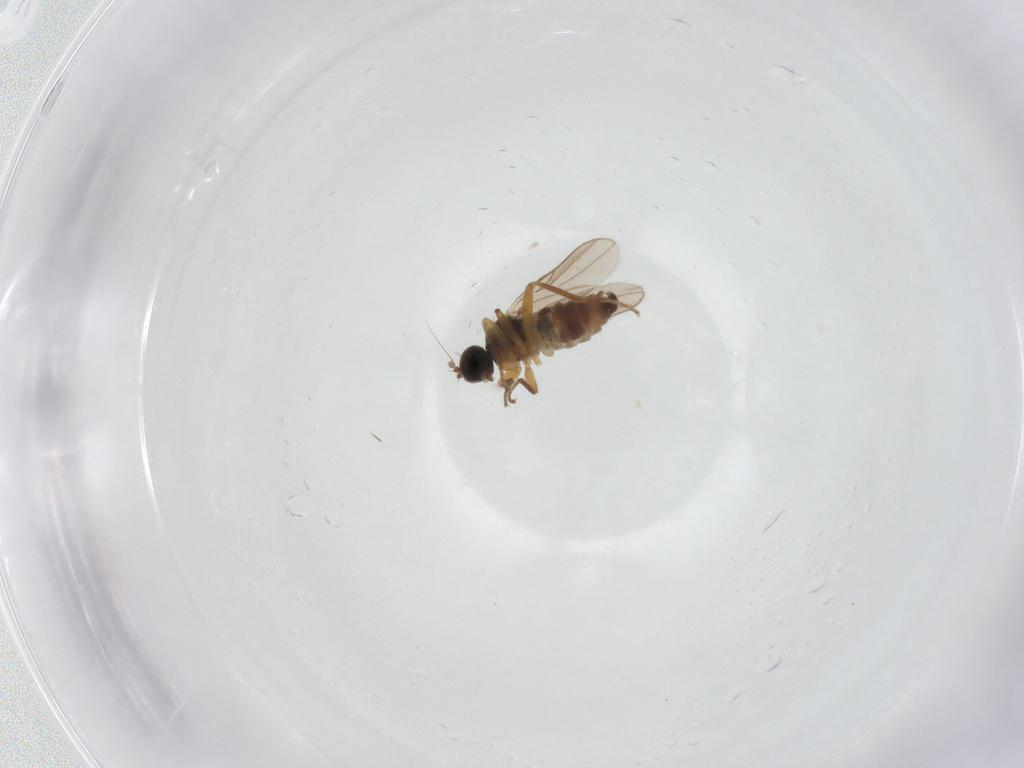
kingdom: Animalia
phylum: Arthropoda
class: Insecta
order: Diptera
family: Hybotidae
